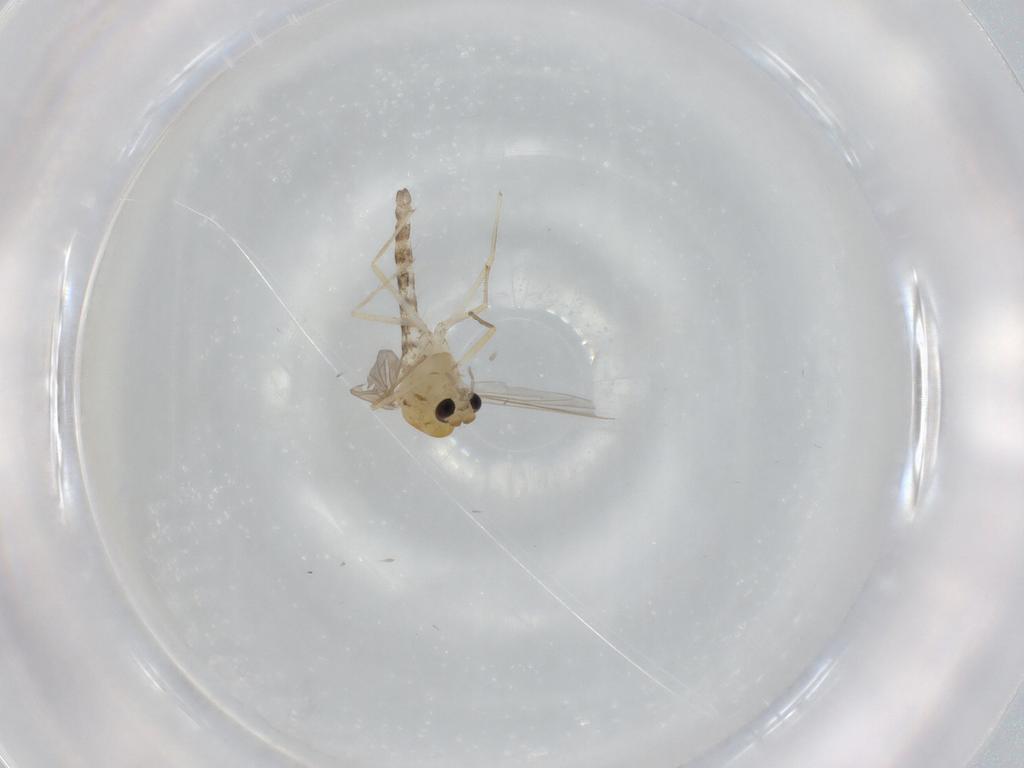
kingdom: Animalia
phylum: Arthropoda
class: Insecta
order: Diptera
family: Chironomidae
